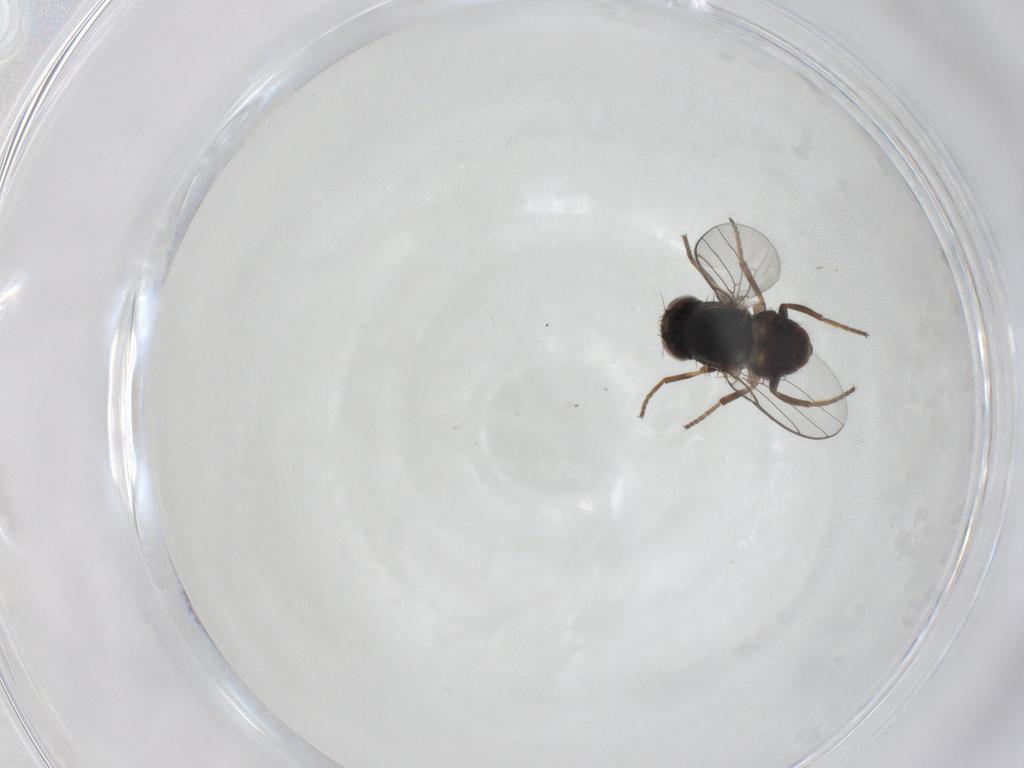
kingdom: Animalia
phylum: Arthropoda
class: Insecta
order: Diptera
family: Chloropidae
